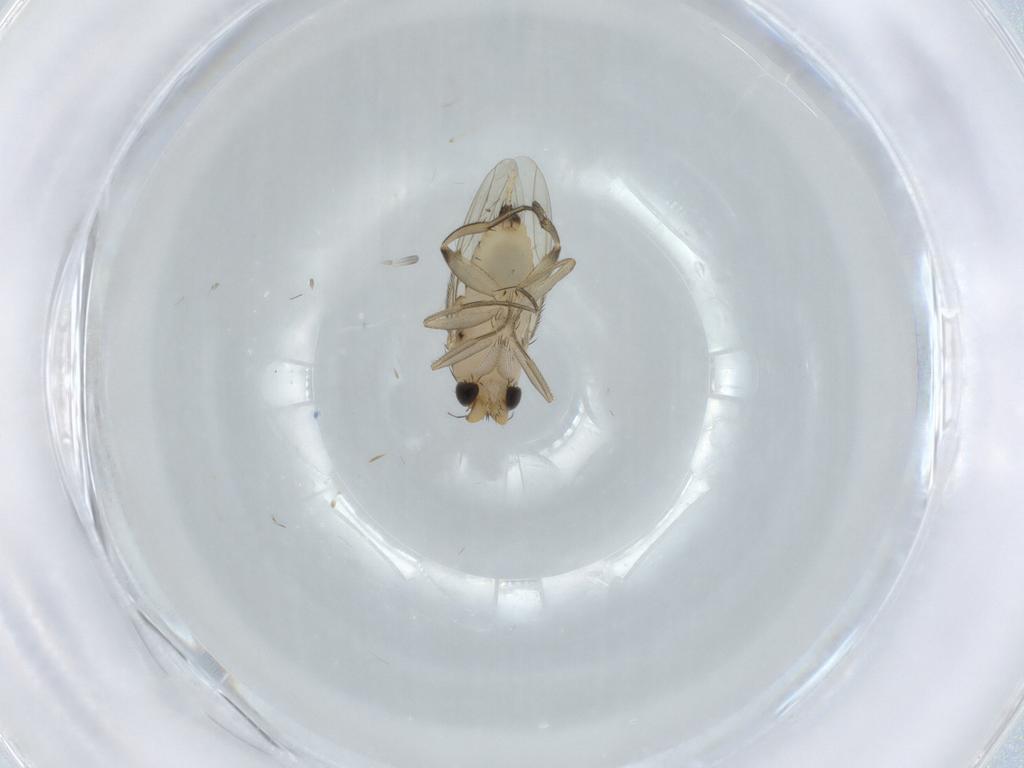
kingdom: Animalia
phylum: Arthropoda
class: Insecta
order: Diptera
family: Phoridae
